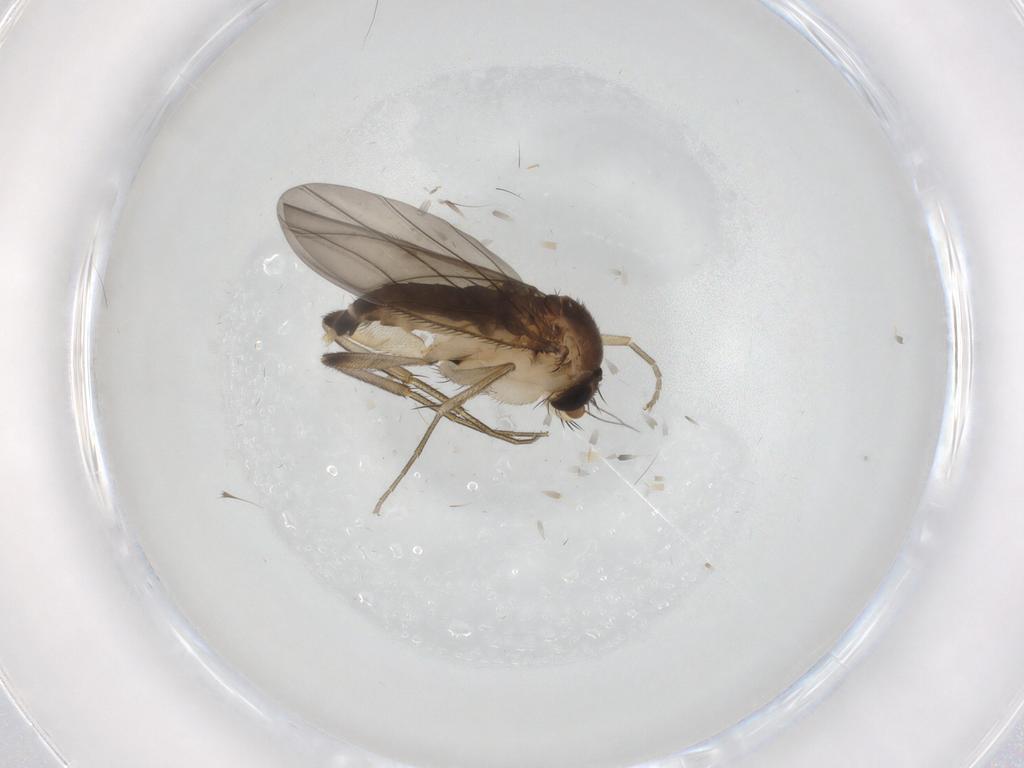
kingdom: Animalia
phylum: Arthropoda
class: Insecta
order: Diptera
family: Phoridae
